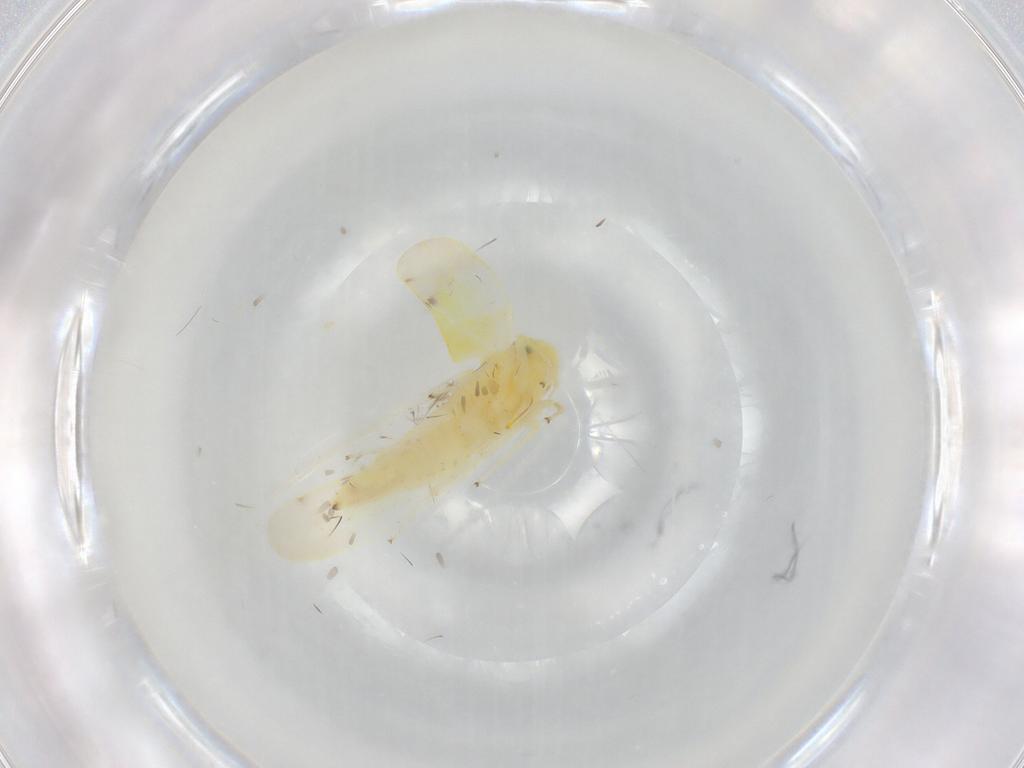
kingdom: Animalia
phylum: Arthropoda
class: Insecta
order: Hemiptera
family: Cicadellidae
